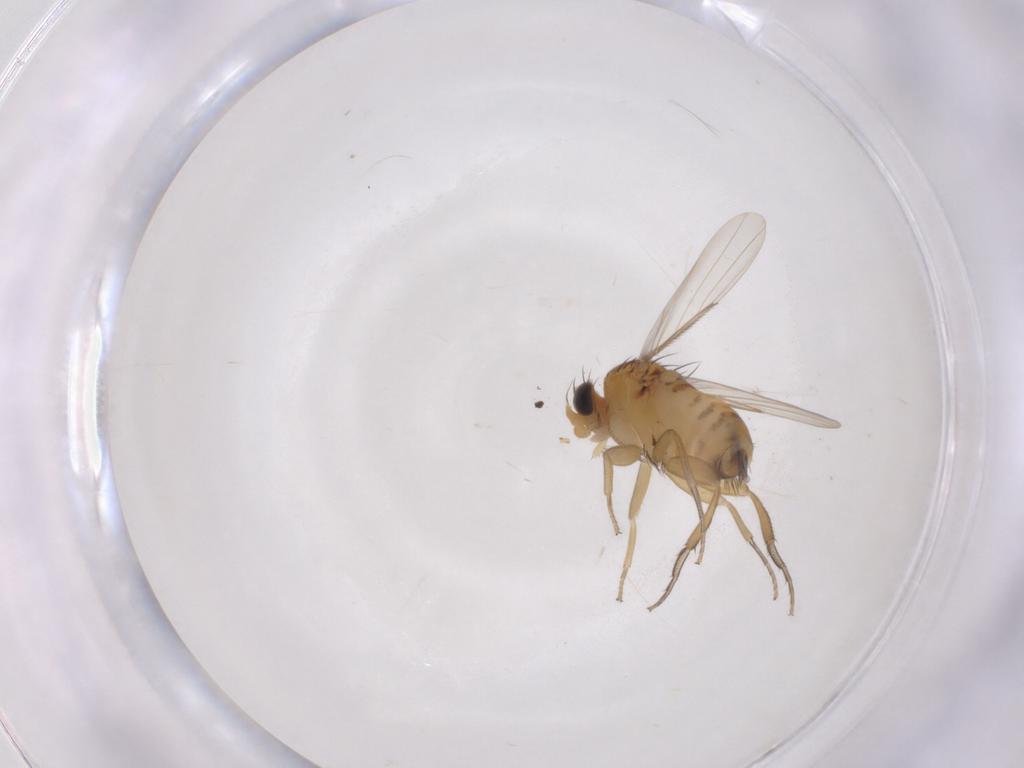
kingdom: Animalia
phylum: Arthropoda
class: Insecta
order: Diptera
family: Phoridae
